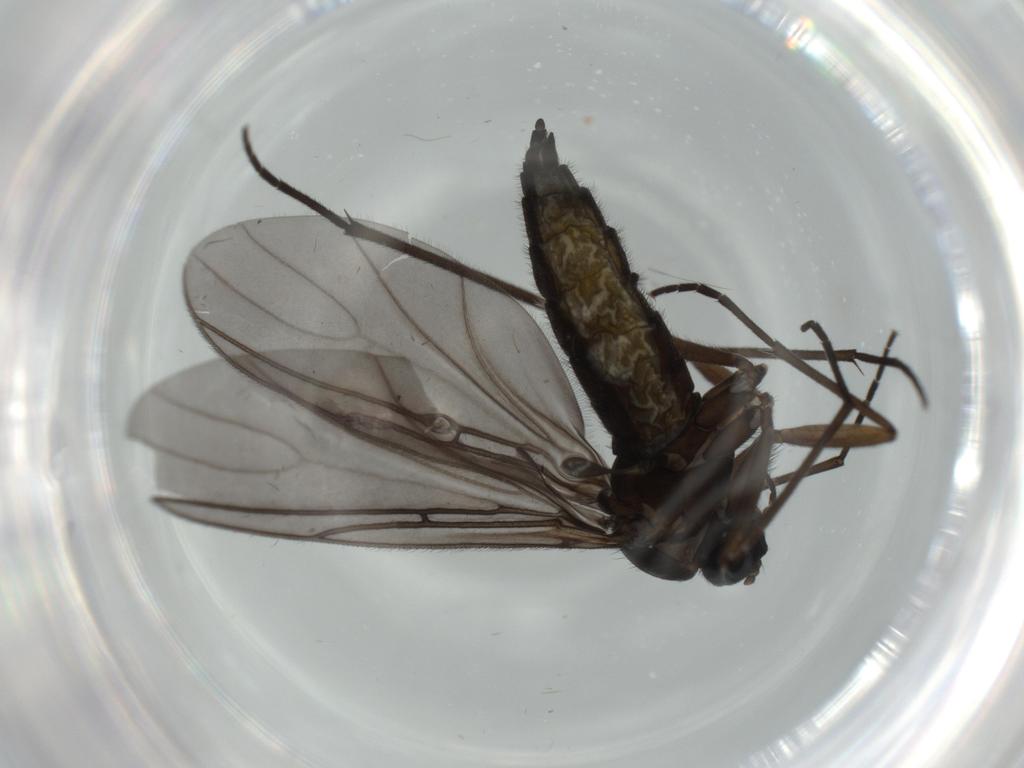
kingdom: Animalia
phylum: Arthropoda
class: Insecta
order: Diptera
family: Sciaridae
